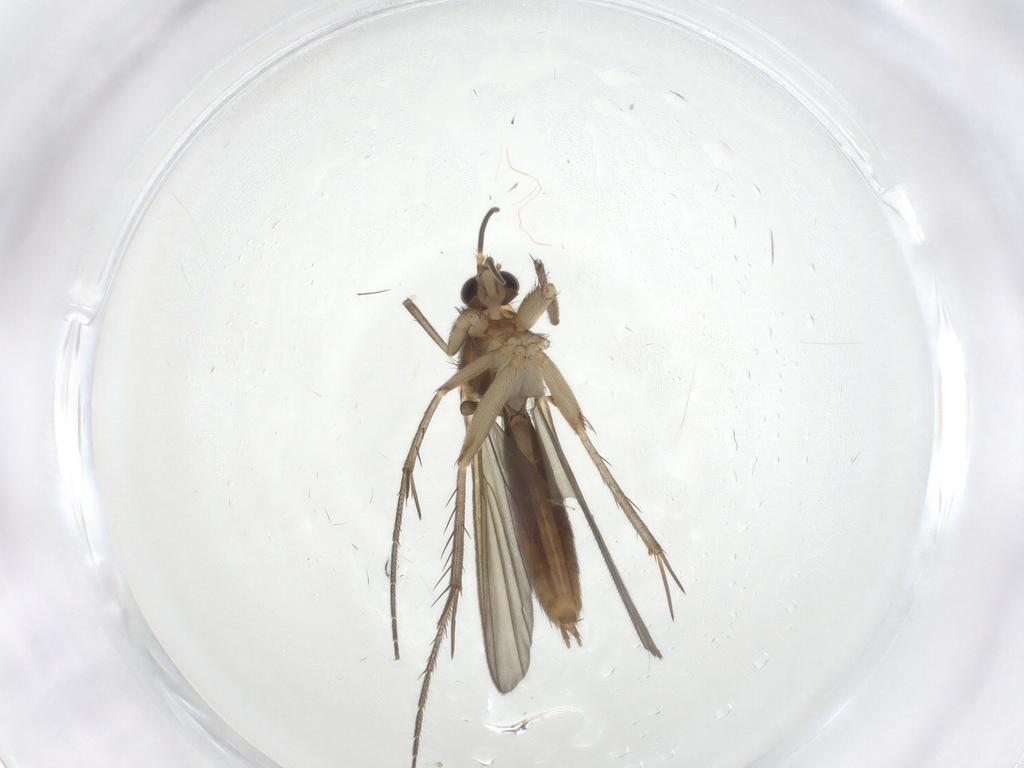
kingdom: Animalia
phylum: Arthropoda
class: Insecta
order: Diptera
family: Mycetophilidae
